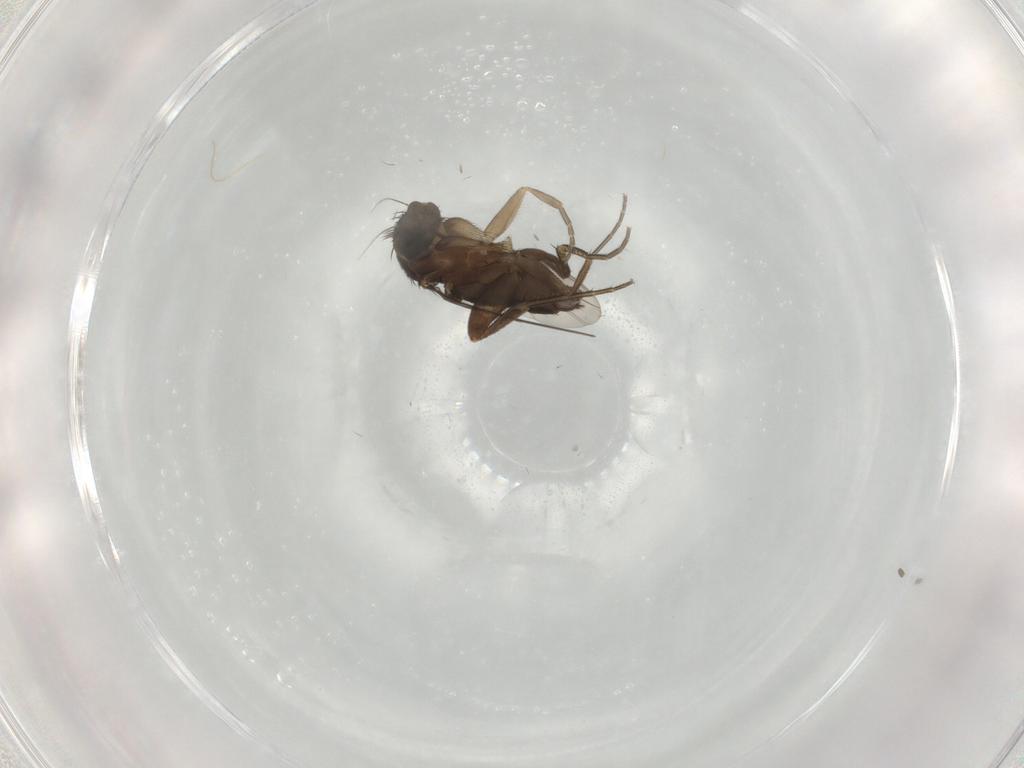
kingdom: Animalia
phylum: Arthropoda
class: Insecta
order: Diptera
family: Phoridae
